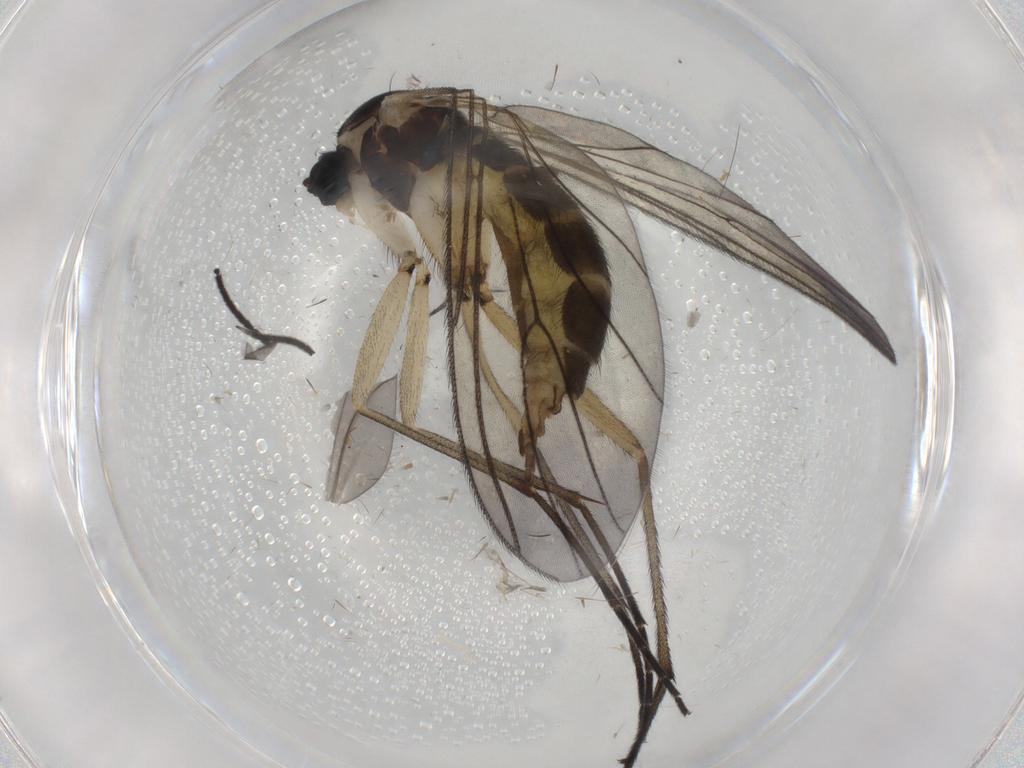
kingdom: Animalia
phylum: Arthropoda
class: Insecta
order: Diptera
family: Sciaridae
